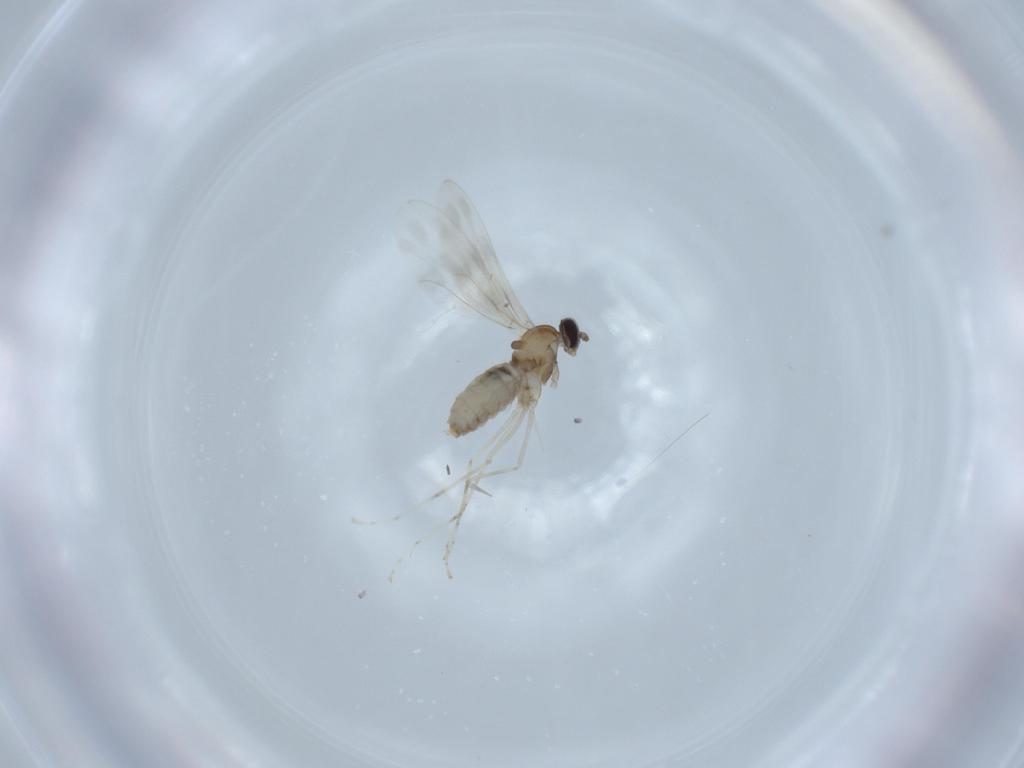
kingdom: Animalia
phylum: Arthropoda
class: Insecta
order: Diptera
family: Cecidomyiidae
